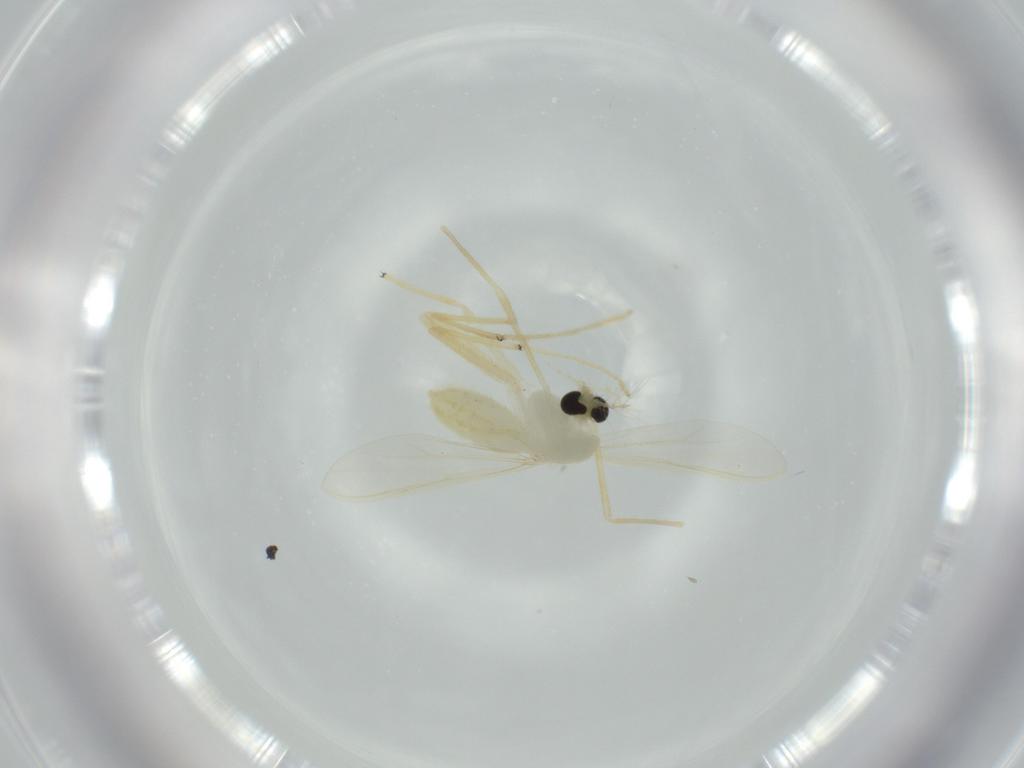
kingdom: Animalia
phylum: Arthropoda
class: Insecta
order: Diptera
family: Chironomidae
